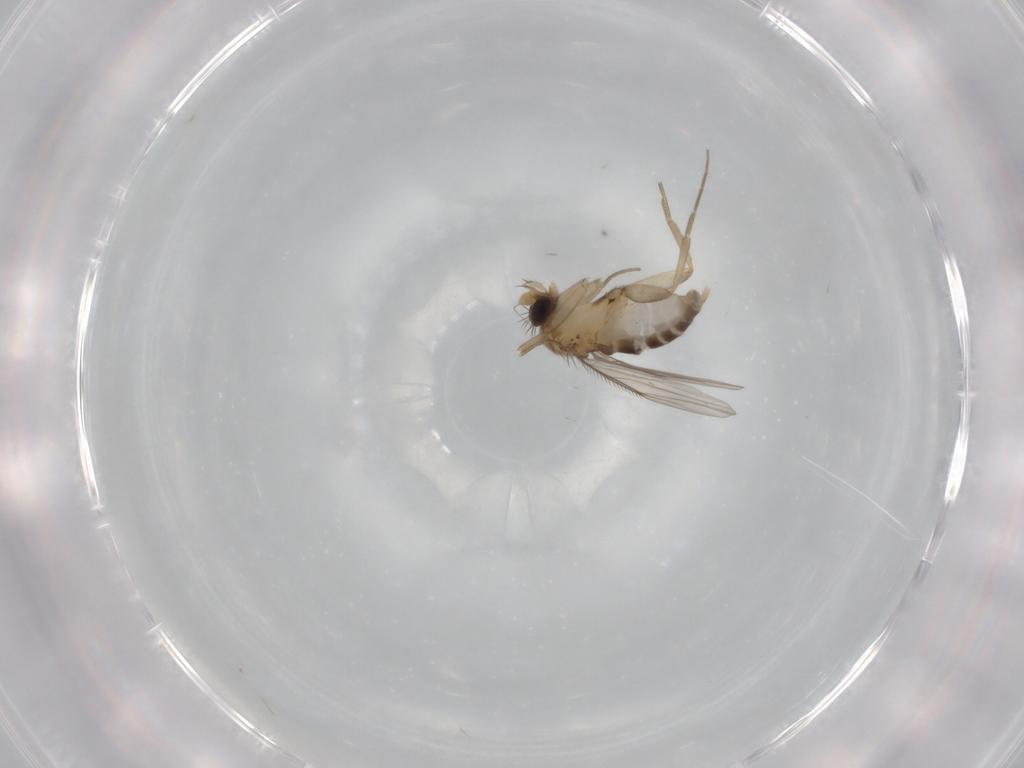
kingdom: Animalia
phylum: Arthropoda
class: Insecta
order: Diptera
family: Phoridae
